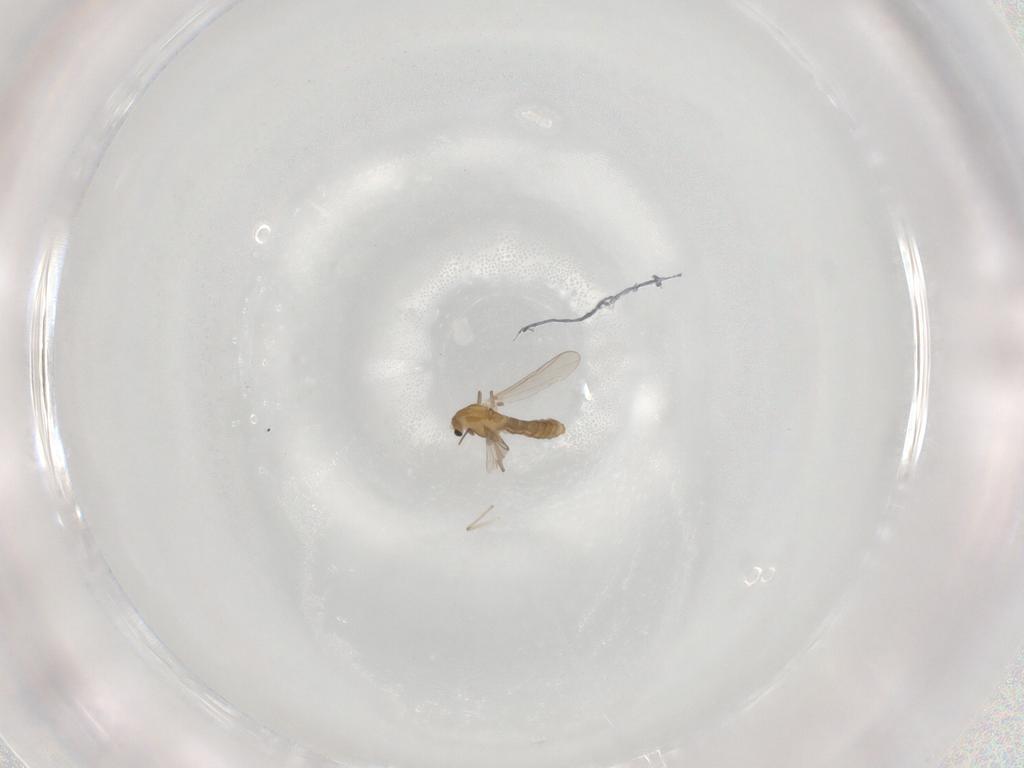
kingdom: Animalia
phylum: Arthropoda
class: Insecta
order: Diptera
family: Chironomidae
